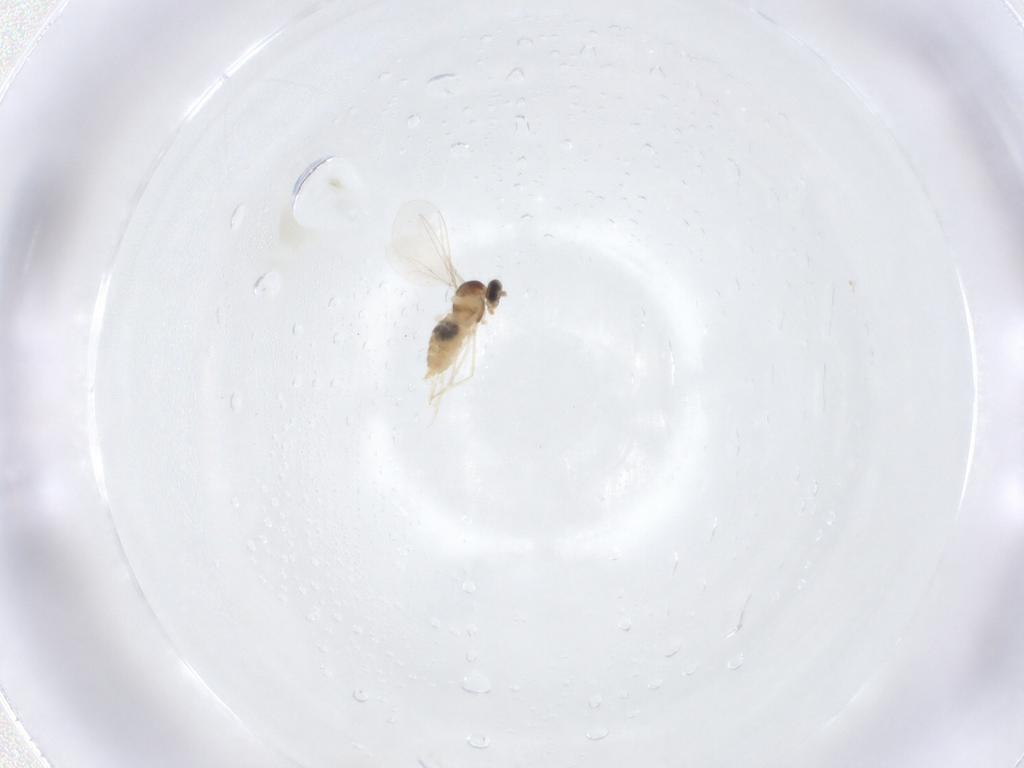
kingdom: Animalia
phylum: Arthropoda
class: Insecta
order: Diptera
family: Cecidomyiidae
